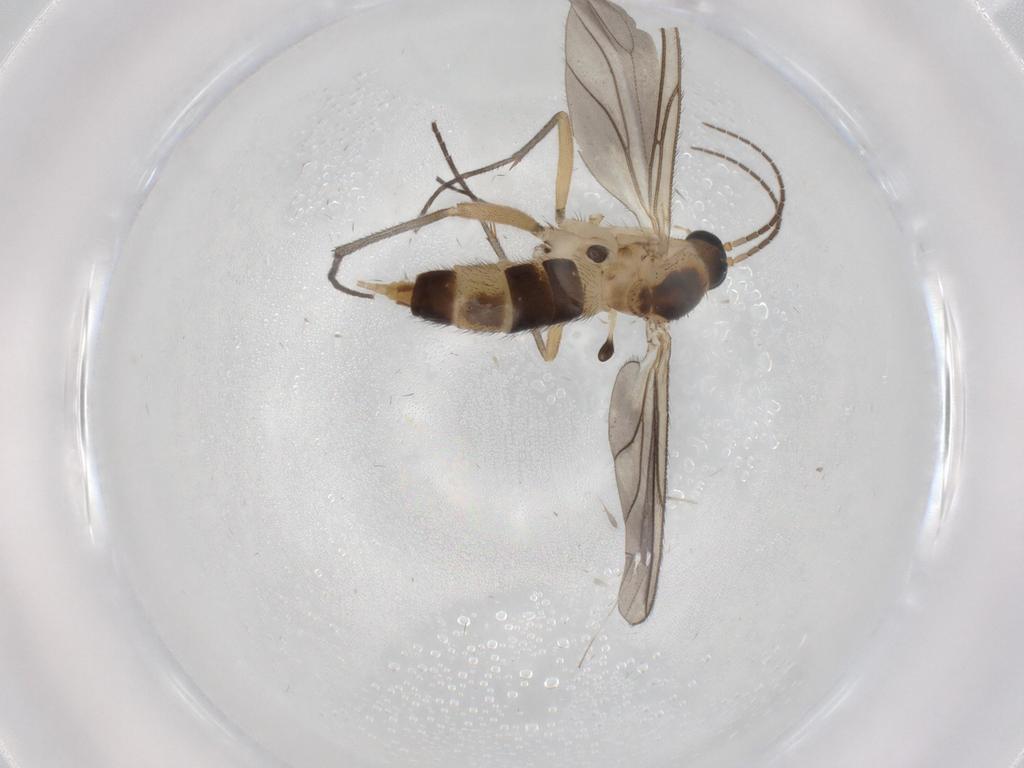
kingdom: Animalia
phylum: Arthropoda
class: Insecta
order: Diptera
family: Sciaridae
